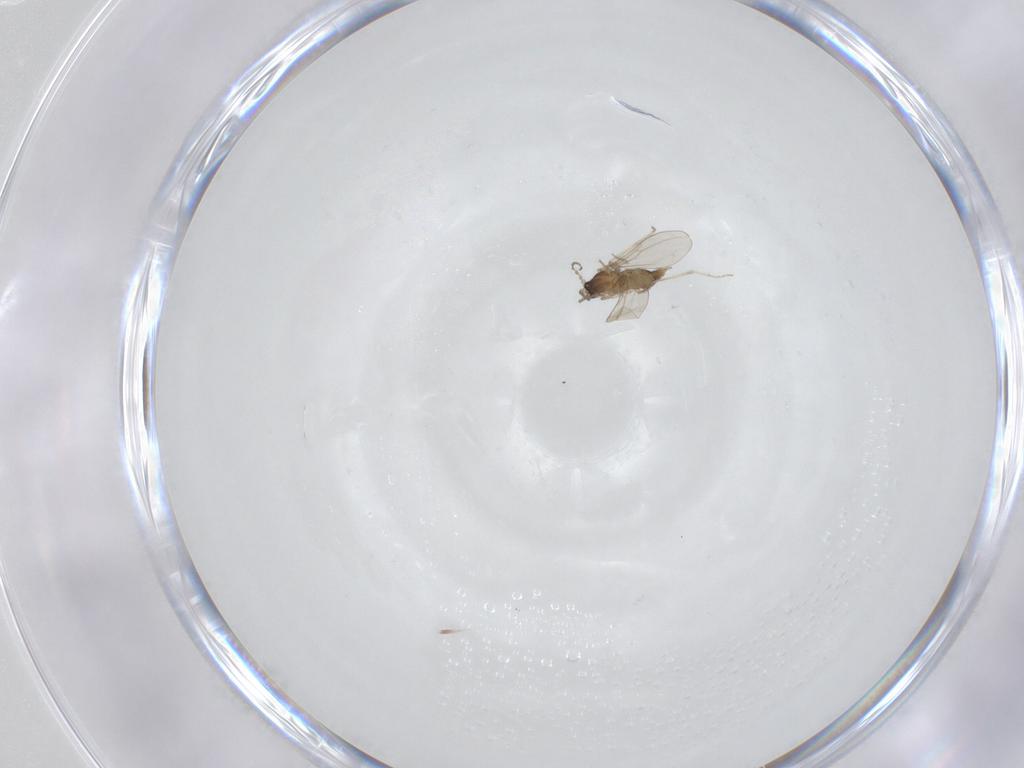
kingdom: Animalia
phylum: Arthropoda
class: Insecta
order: Diptera
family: Cecidomyiidae
